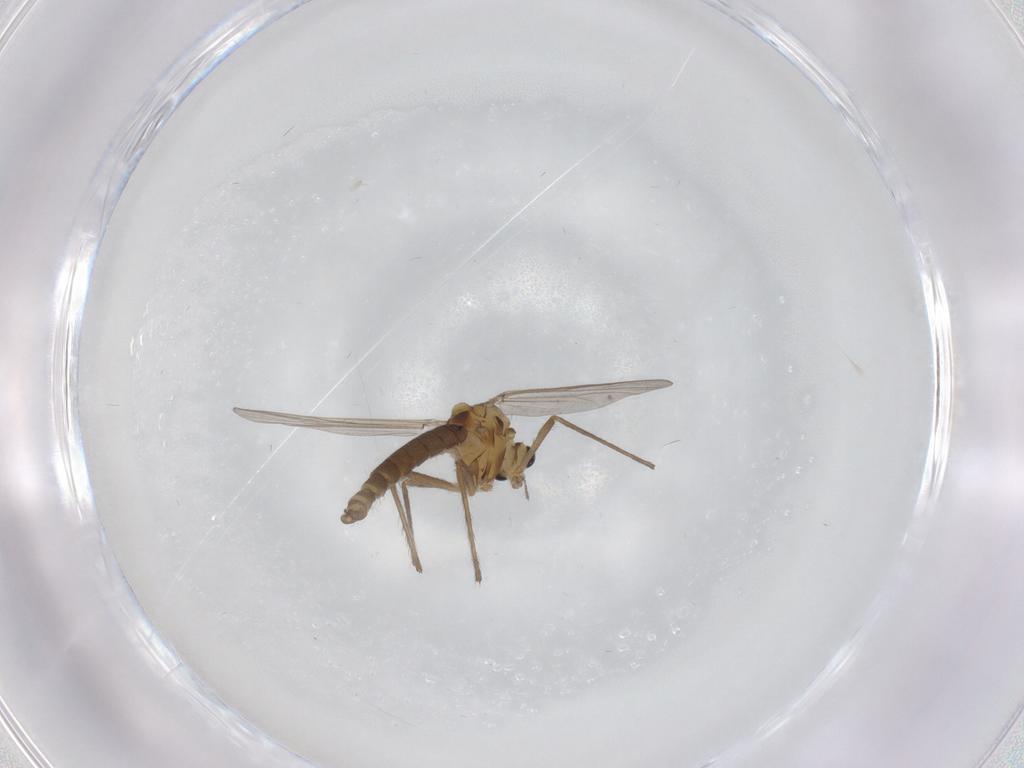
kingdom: Animalia
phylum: Arthropoda
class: Insecta
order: Diptera
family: Chironomidae
